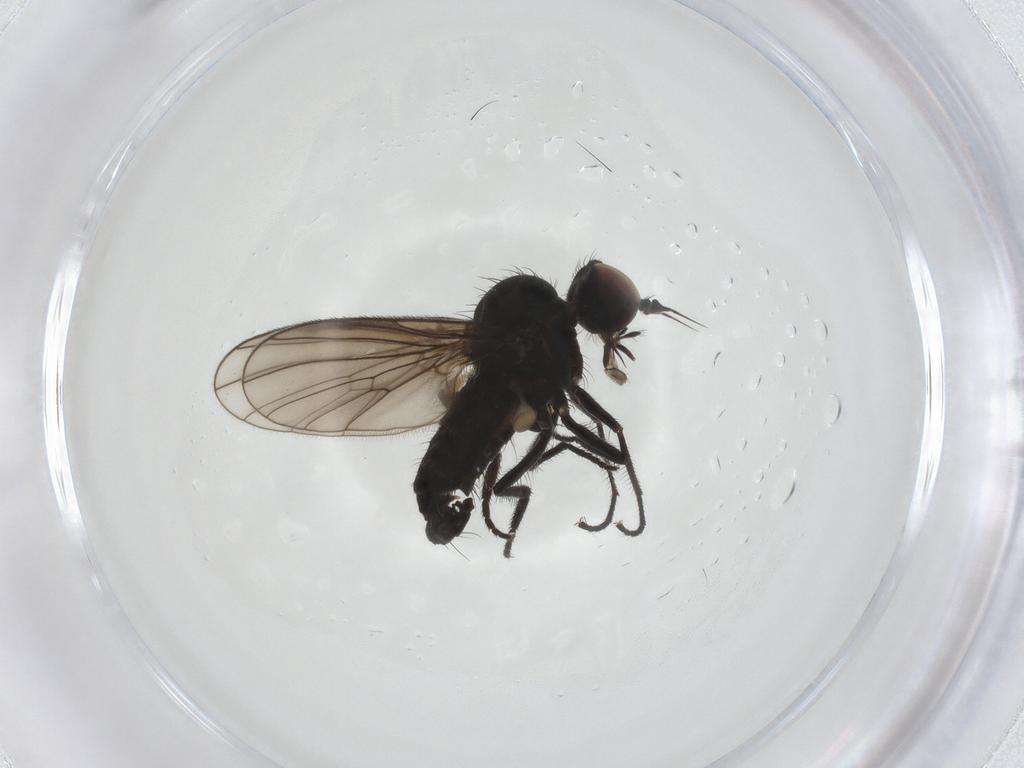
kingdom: Animalia
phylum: Arthropoda
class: Insecta
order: Diptera
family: Dolichopodidae
